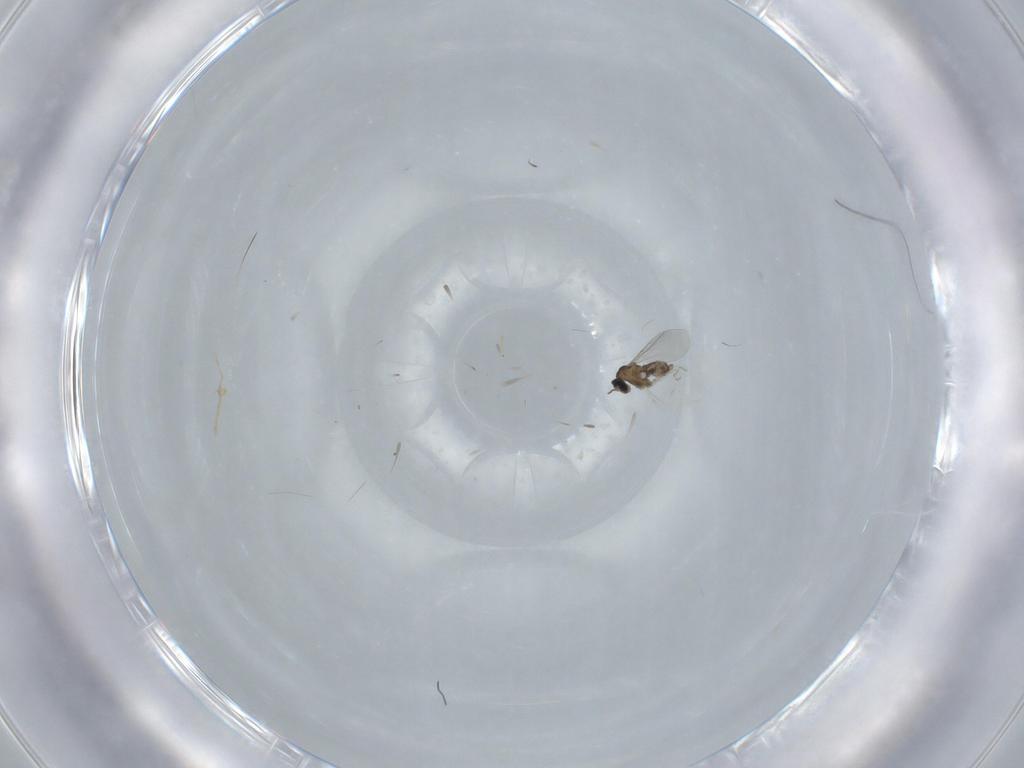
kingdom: Animalia
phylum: Arthropoda
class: Insecta
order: Diptera
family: Cecidomyiidae
